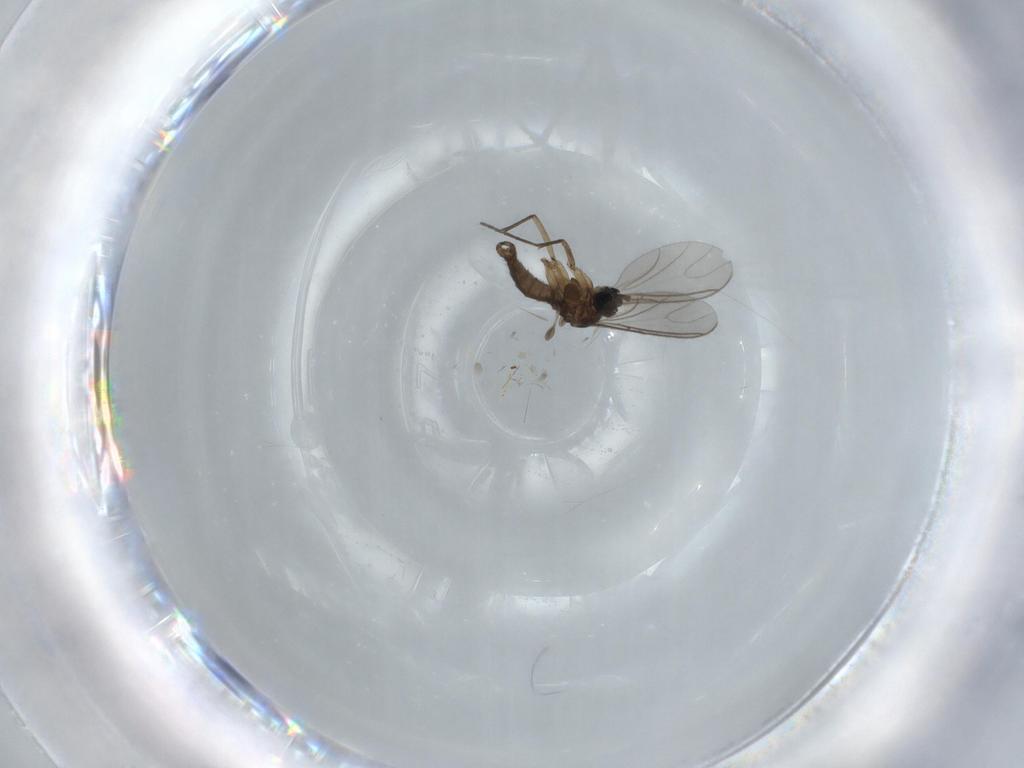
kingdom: Animalia
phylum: Arthropoda
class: Insecta
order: Diptera
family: Sciaridae
